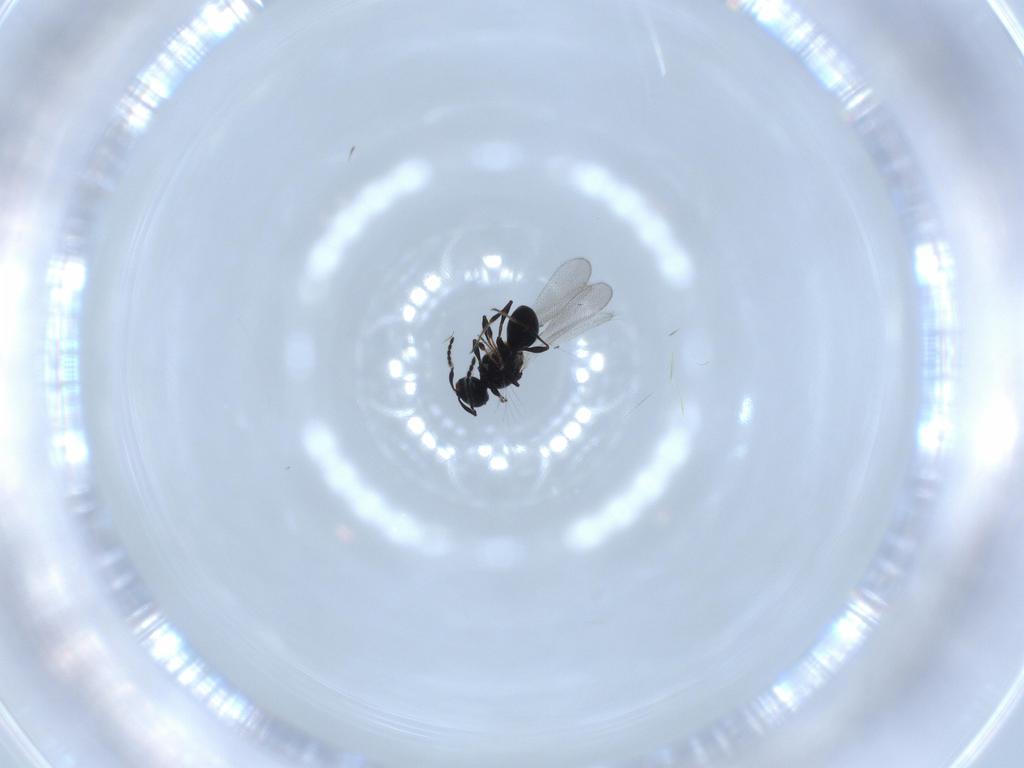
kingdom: Animalia
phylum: Arthropoda
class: Insecta
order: Hymenoptera
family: Platygastridae
